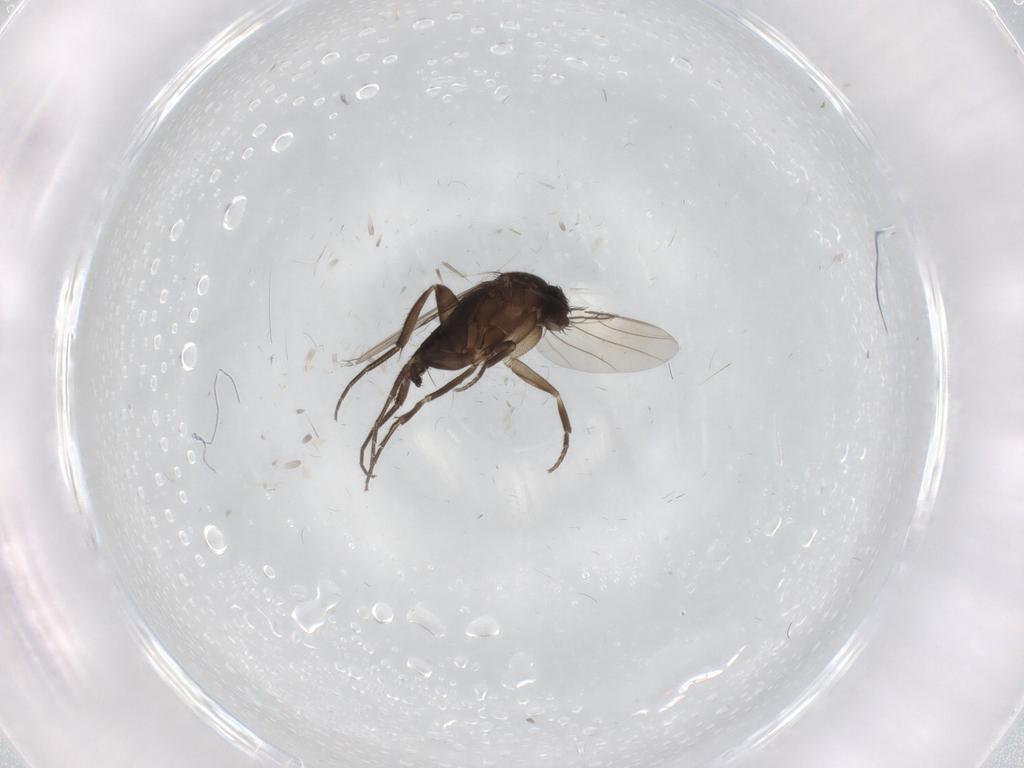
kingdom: Animalia
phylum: Arthropoda
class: Insecta
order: Diptera
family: Phoridae
